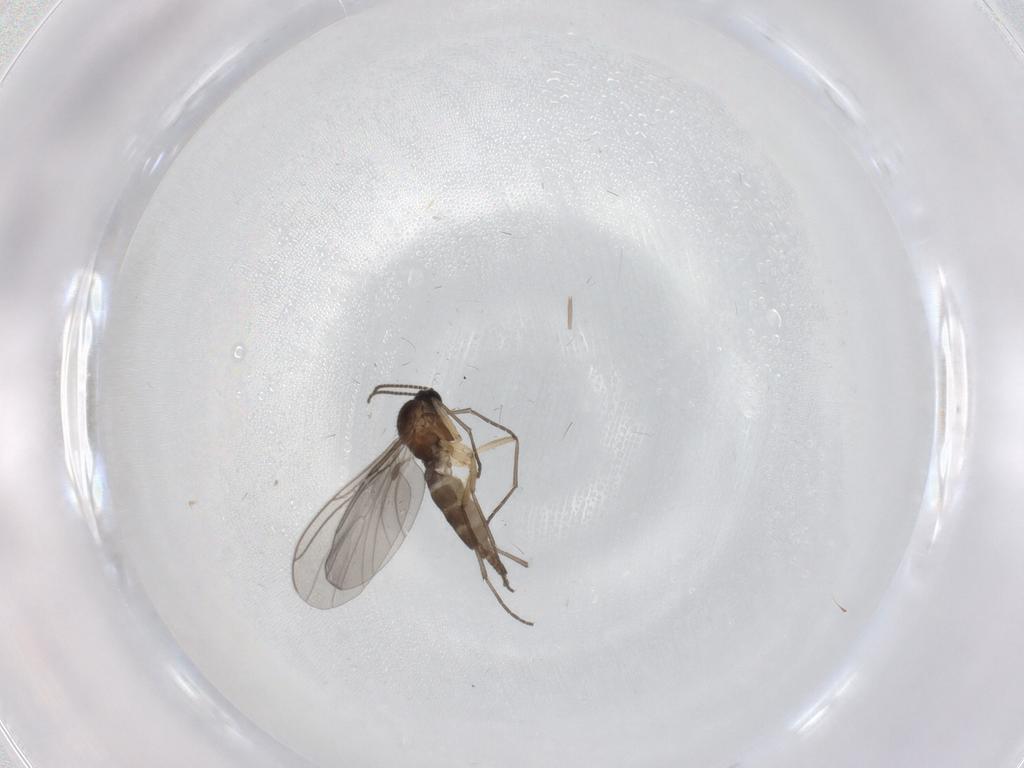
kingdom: Animalia
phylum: Arthropoda
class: Insecta
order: Diptera
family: Sciaridae
